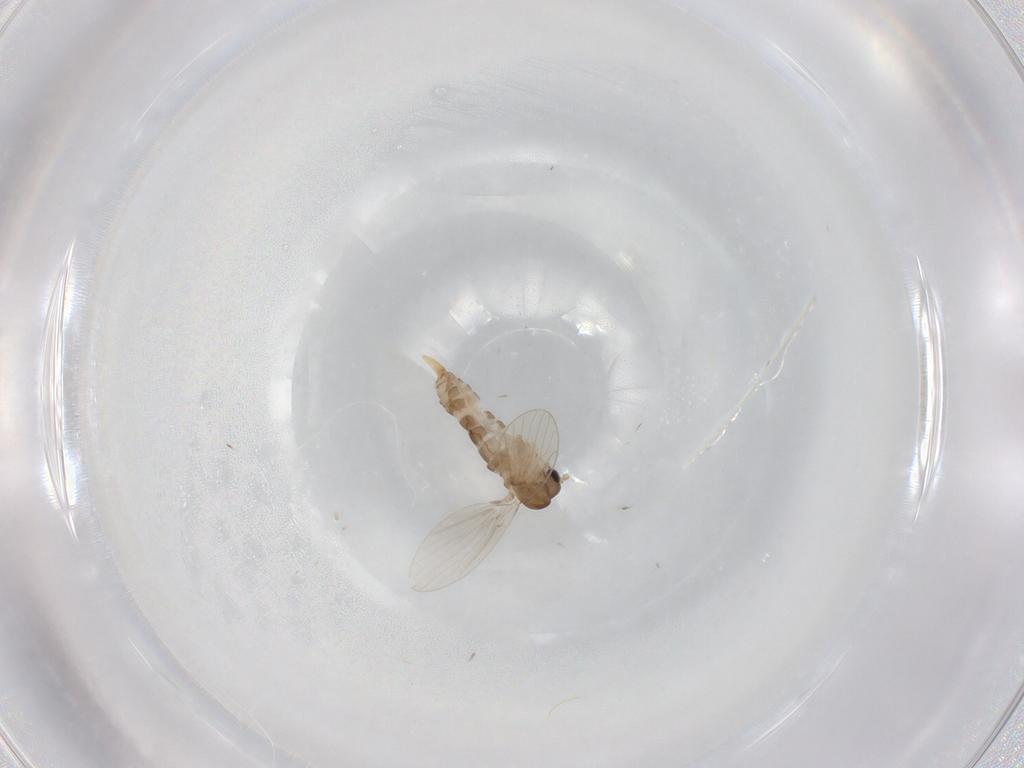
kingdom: Animalia
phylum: Arthropoda
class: Insecta
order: Diptera
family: Psychodidae
